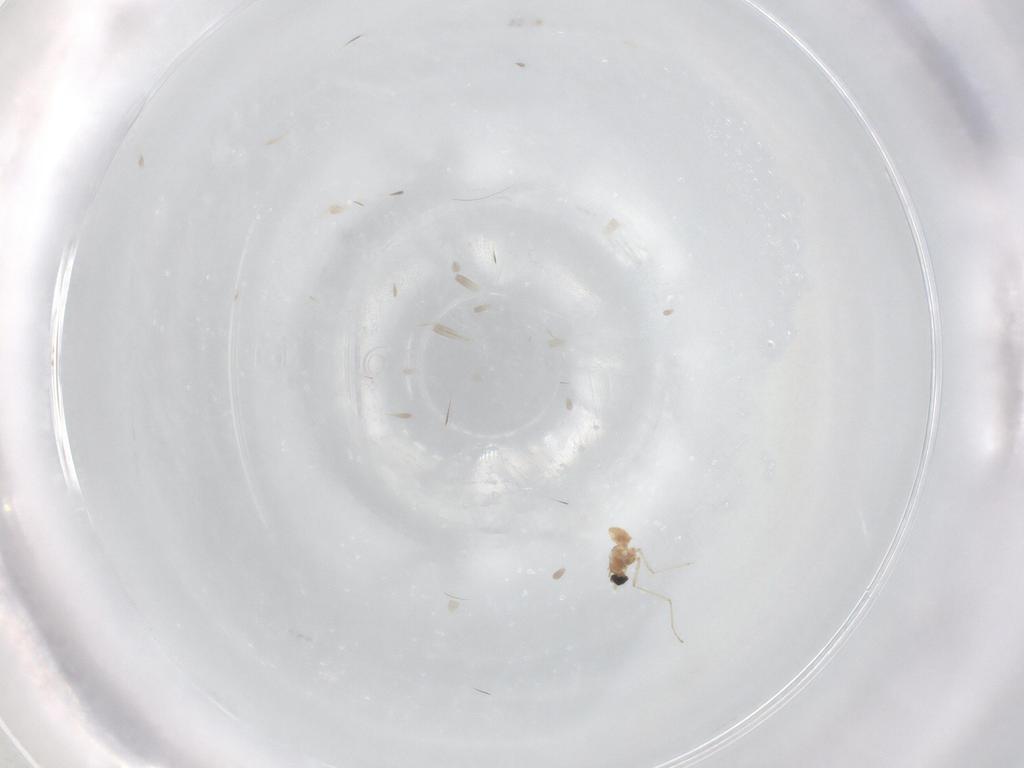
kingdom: Animalia
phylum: Arthropoda
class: Insecta
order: Diptera
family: Cecidomyiidae
